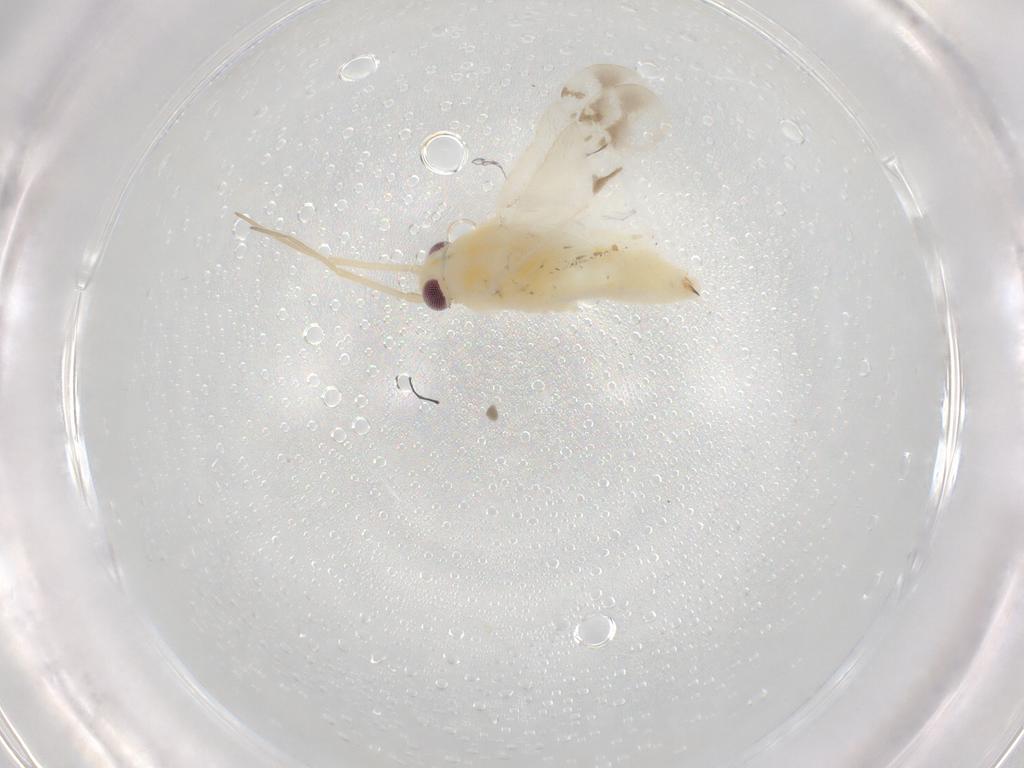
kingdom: Animalia
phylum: Arthropoda
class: Insecta
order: Hemiptera
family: Miridae
